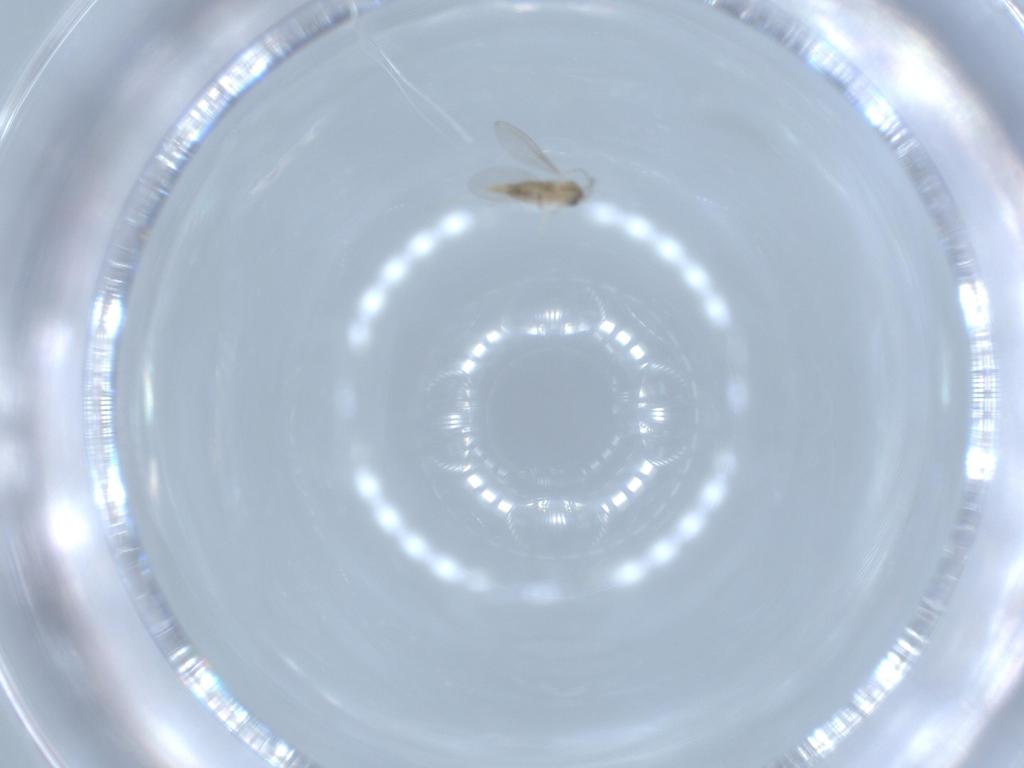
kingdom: Animalia
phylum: Arthropoda
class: Insecta
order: Diptera
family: Cecidomyiidae
